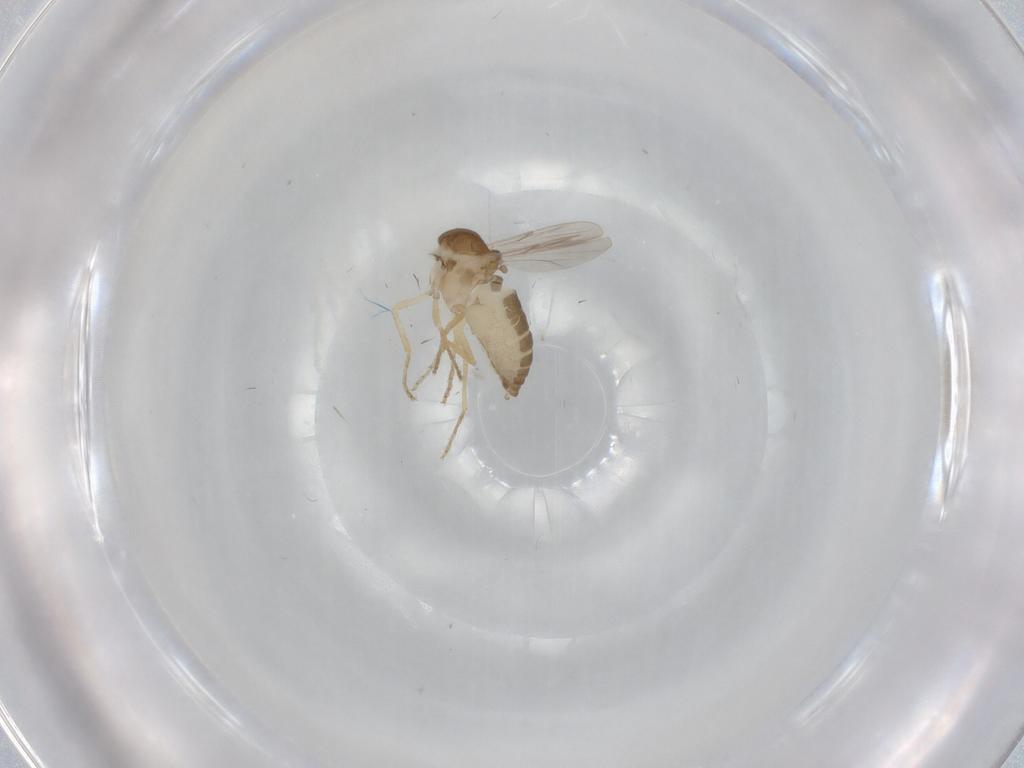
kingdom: Animalia
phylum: Arthropoda
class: Insecta
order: Diptera
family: Ceratopogonidae
